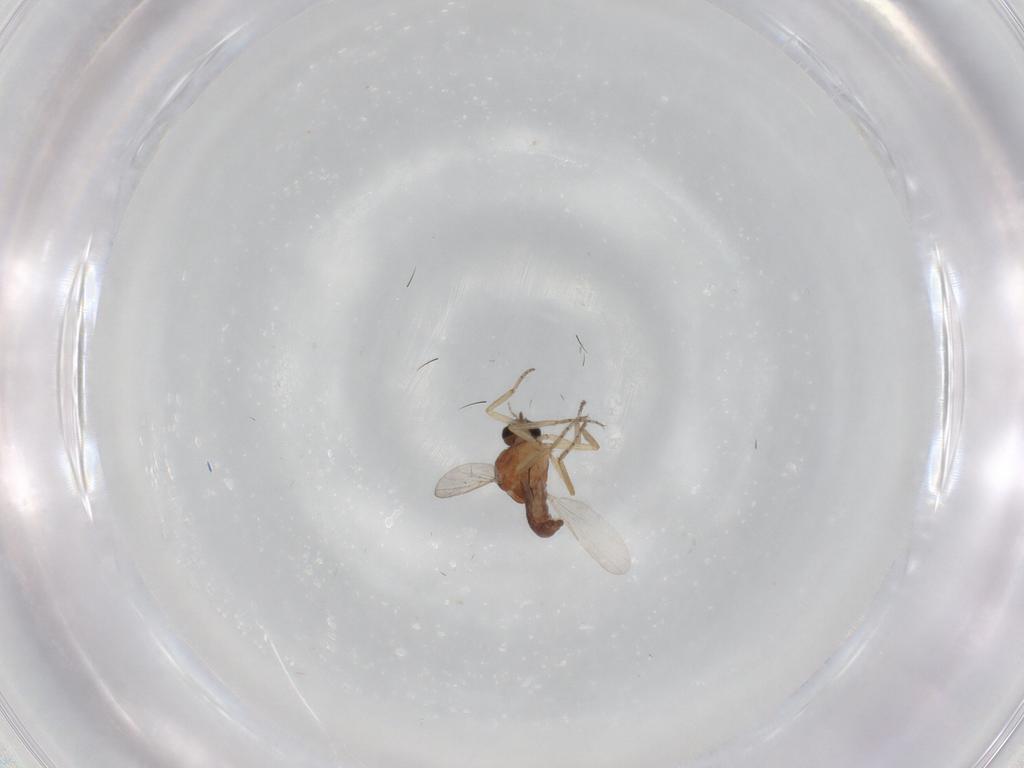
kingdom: Animalia
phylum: Arthropoda
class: Insecta
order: Diptera
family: Ceratopogonidae
